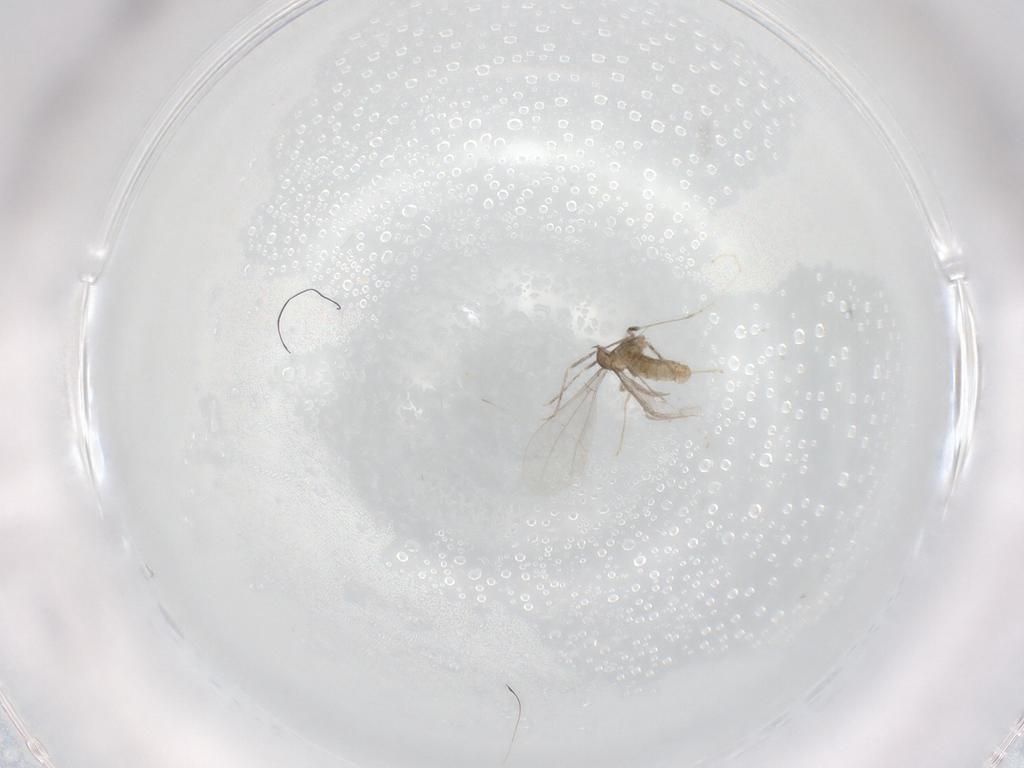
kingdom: Animalia
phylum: Arthropoda
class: Insecta
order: Diptera
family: Cecidomyiidae
